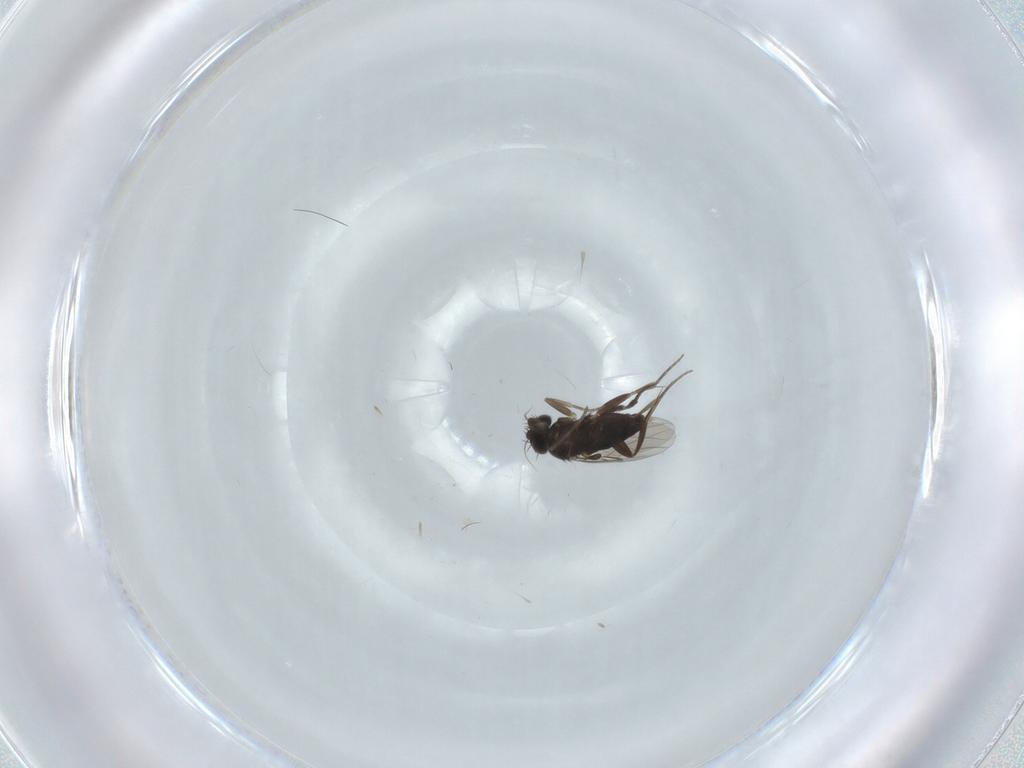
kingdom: Animalia
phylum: Arthropoda
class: Insecta
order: Diptera
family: Phoridae
